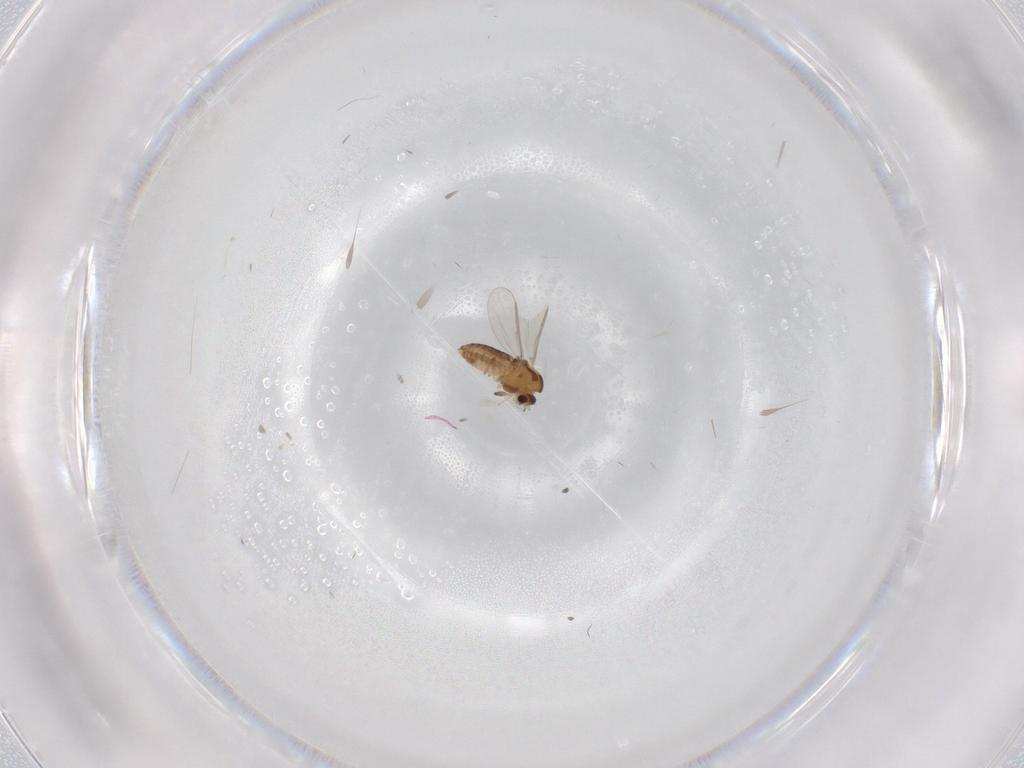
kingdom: Animalia
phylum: Arthropoda
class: Insecta
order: Diptera
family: Chironomidae
